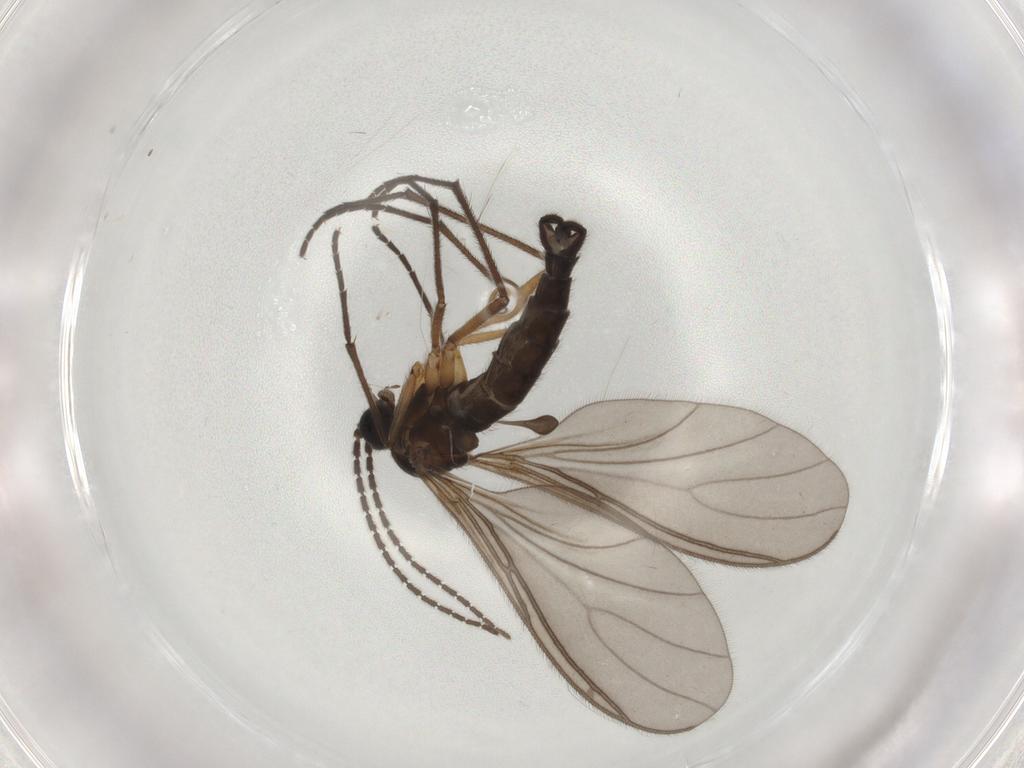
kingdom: Animalia
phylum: Arthropoda
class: Insecta
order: Diptera
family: Sciaridae
